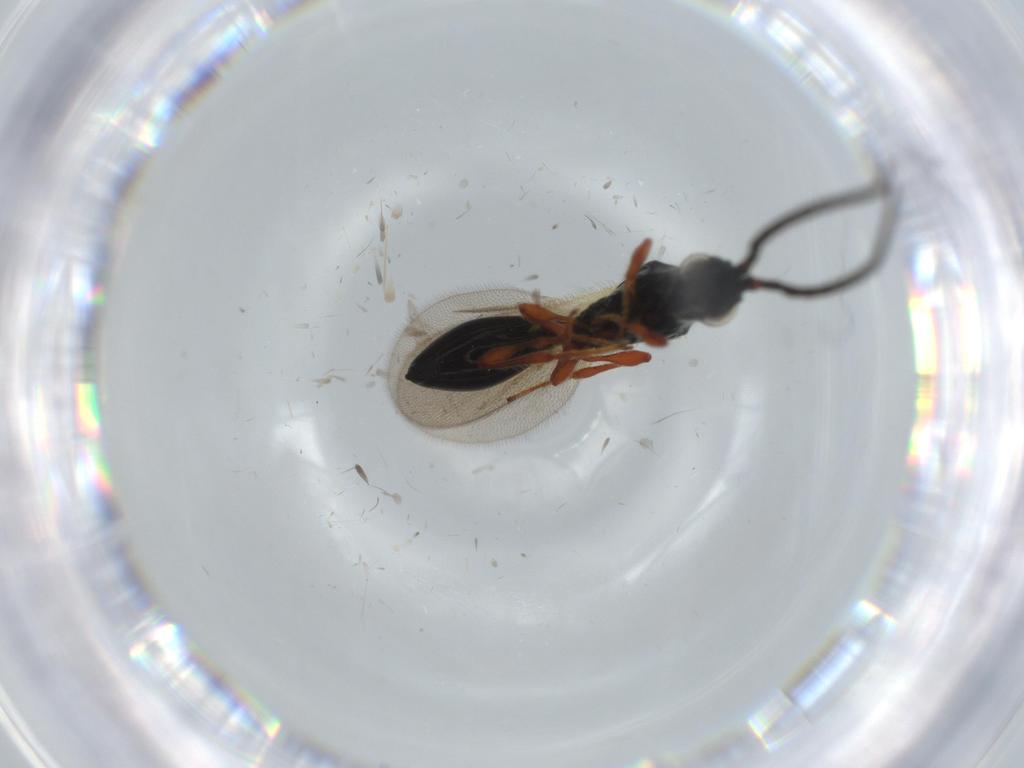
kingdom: Animalia
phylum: Arthropoda
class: Insecta
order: Hymenoptera
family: Diapriidae
